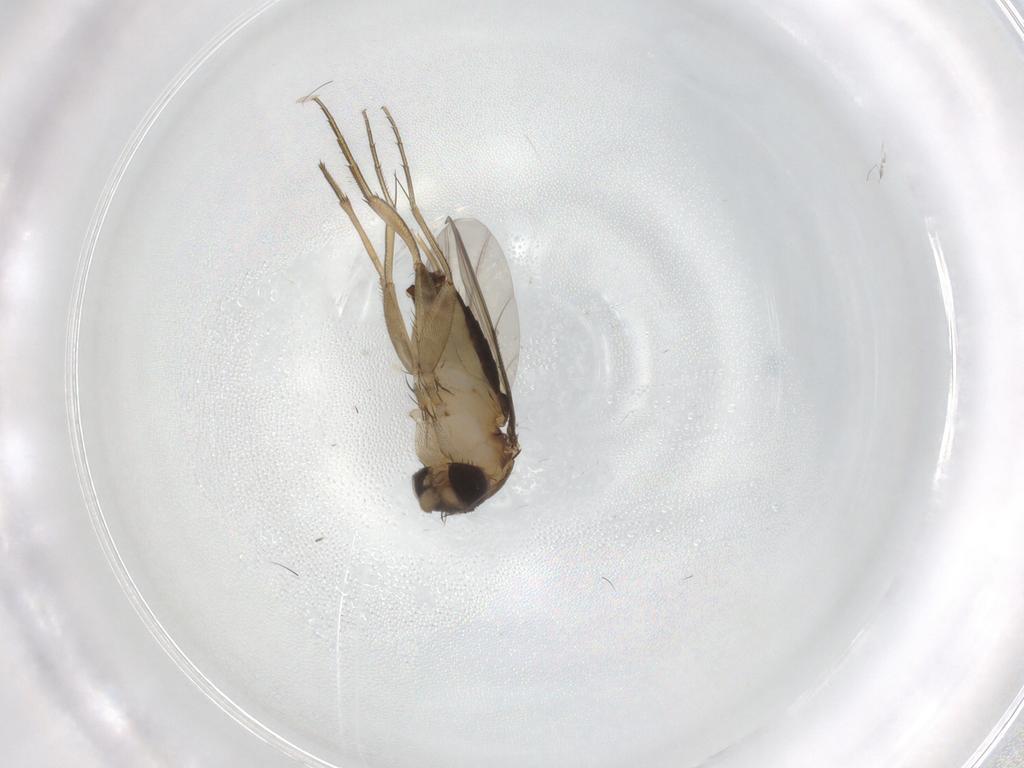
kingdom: Animalia
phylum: Arthropoda
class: Insecta
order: Diptera
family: Phoridae
